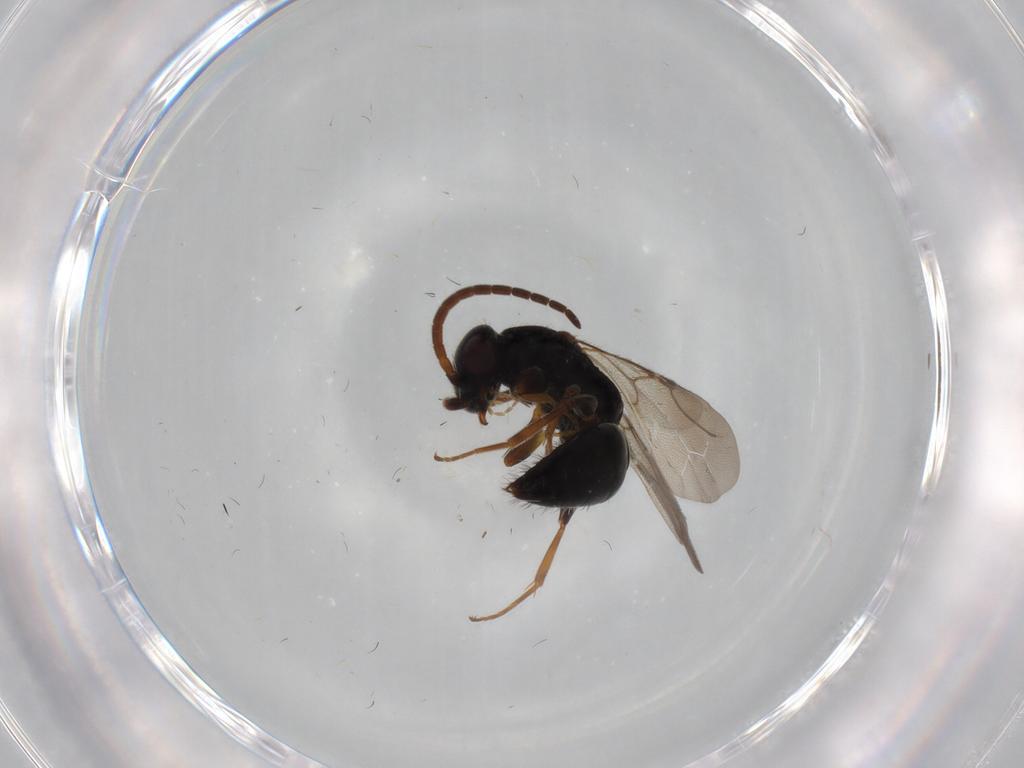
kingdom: Animalia
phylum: Arthropoda
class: Insecta
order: Hymenoptera
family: Bethylidae
